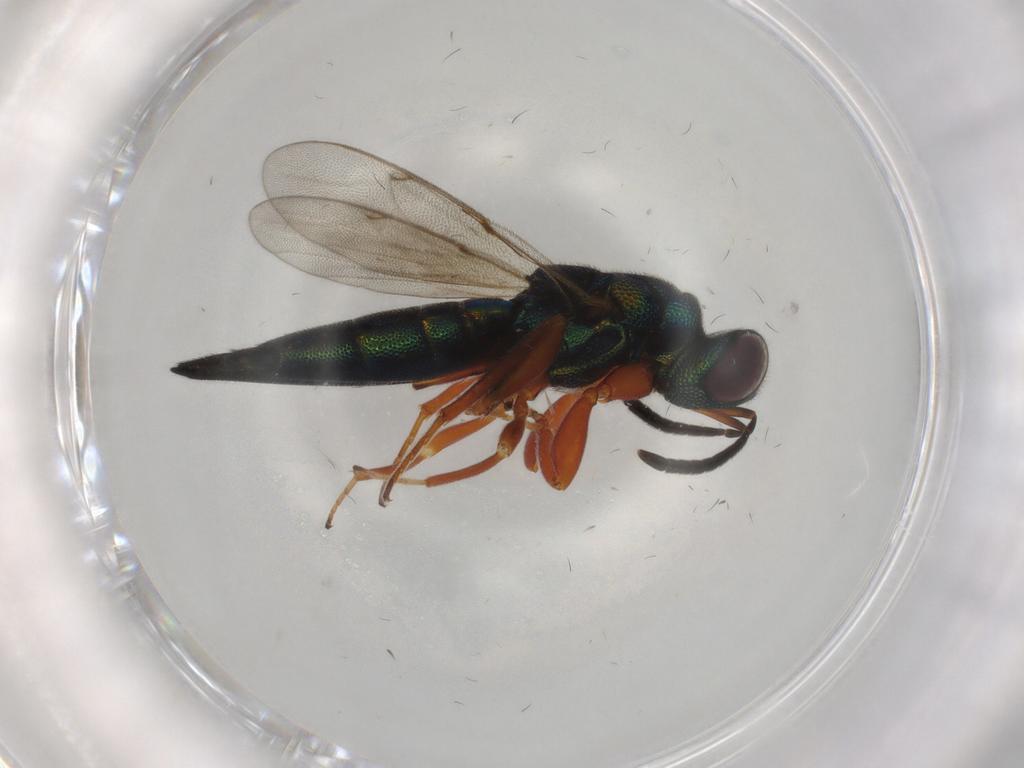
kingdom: Animalia
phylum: Arthropoda
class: Insecta
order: Hymenoptera
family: Lyciscidae
